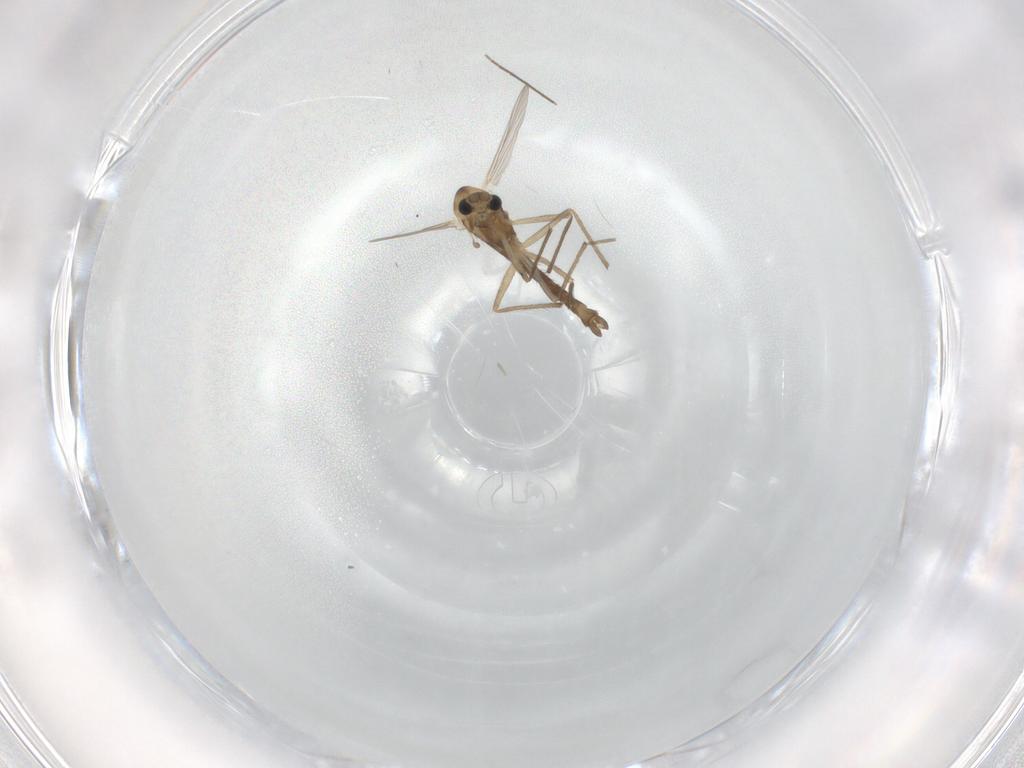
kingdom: Animalia
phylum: Arthropoda
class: Insecta
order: Diptera
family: Chironomidae
